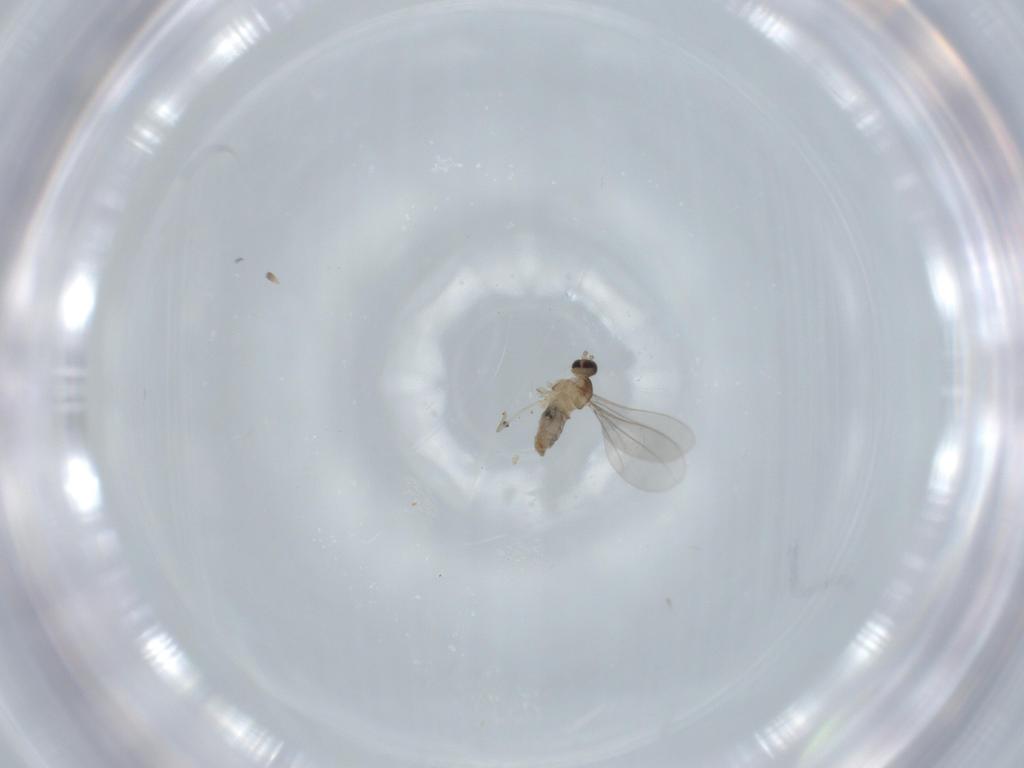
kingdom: Animalia
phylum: Arthropoda
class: Insecta
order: Diptera
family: Cecidomyiidae
